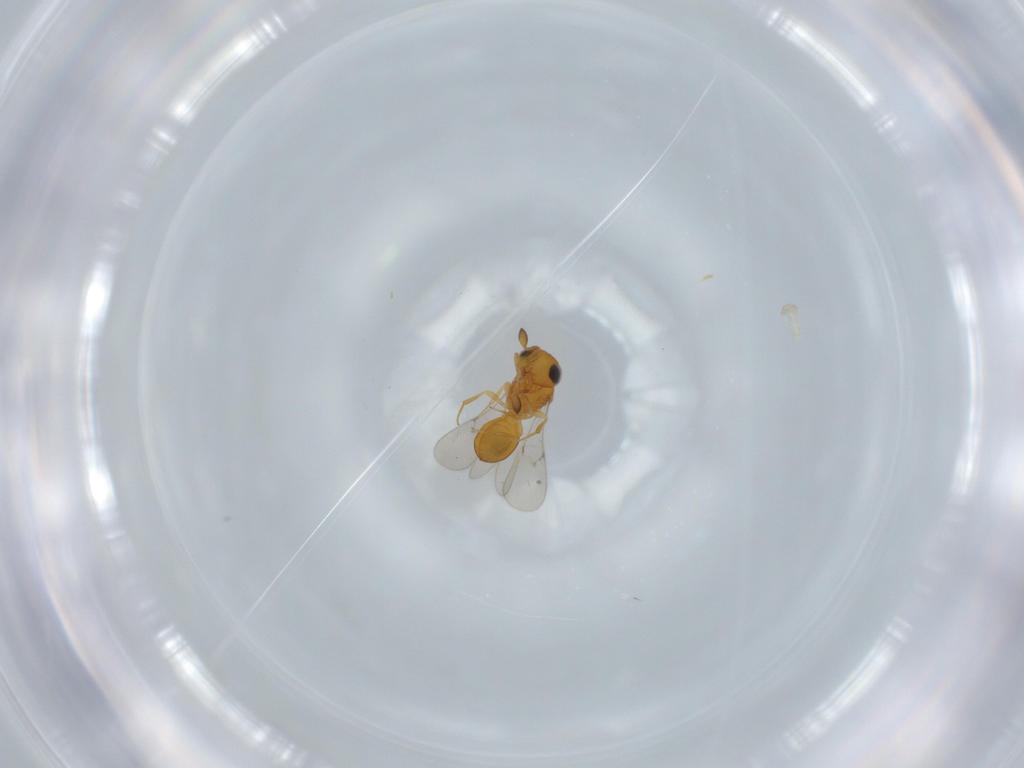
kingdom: Animalia
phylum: Arthropoda
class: Insecta
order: Hymenoptera
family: Scelionidae
